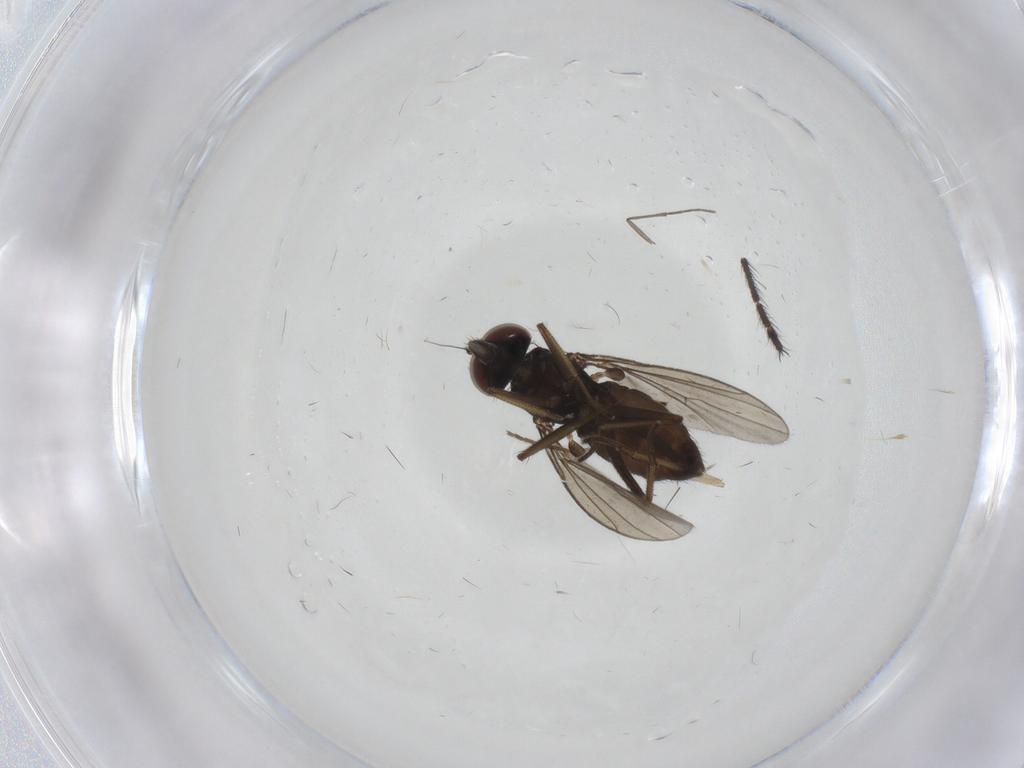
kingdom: Animalia
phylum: Arthropoda
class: Insecta
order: Diptera
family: Dolichopodidae
